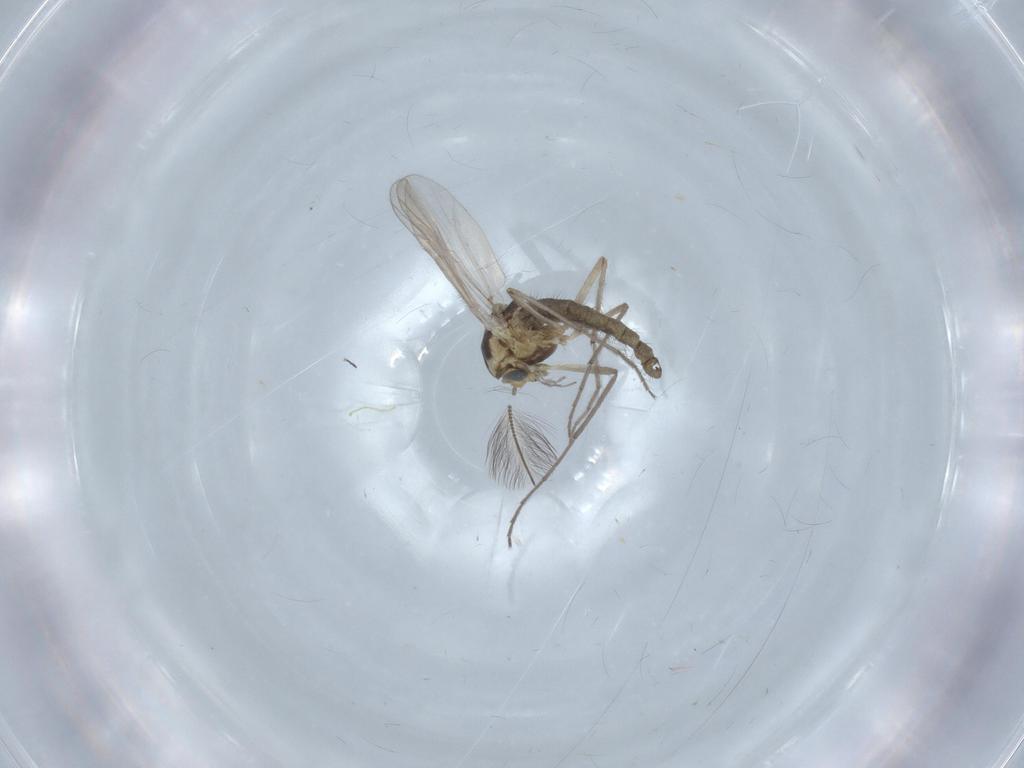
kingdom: Animalia
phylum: Arthropoda
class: Insecta
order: Diptera
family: Chironomidae
